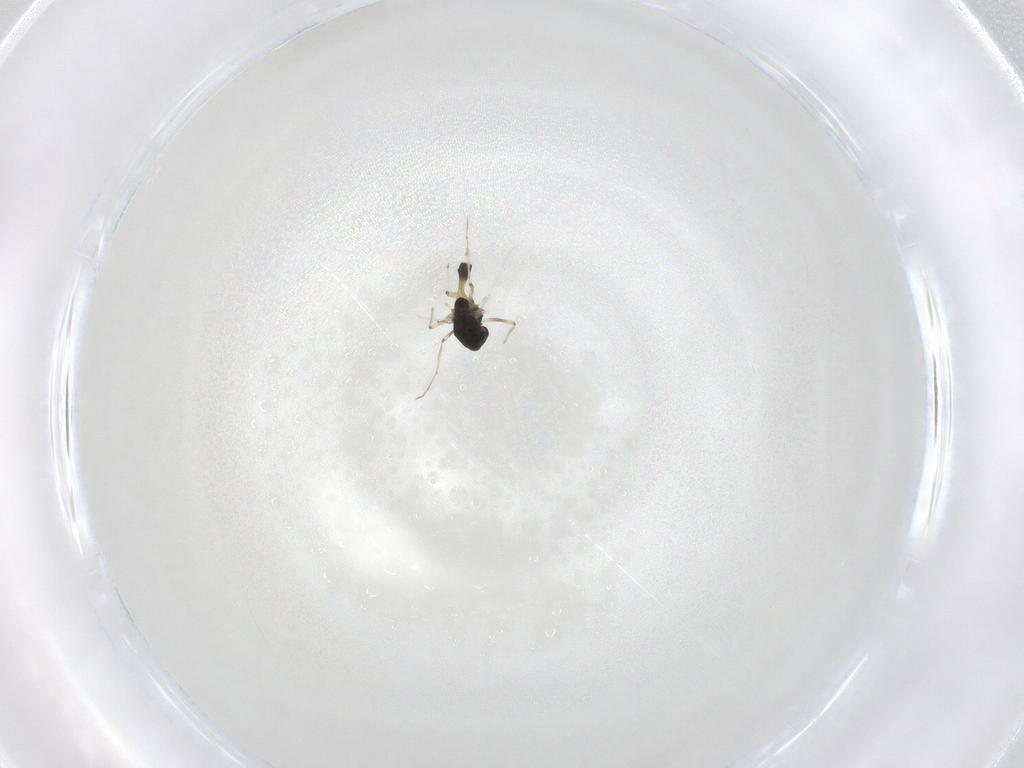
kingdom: Animalia
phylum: Arthropoda
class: Insecta
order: Diptera
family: Chironomidae
